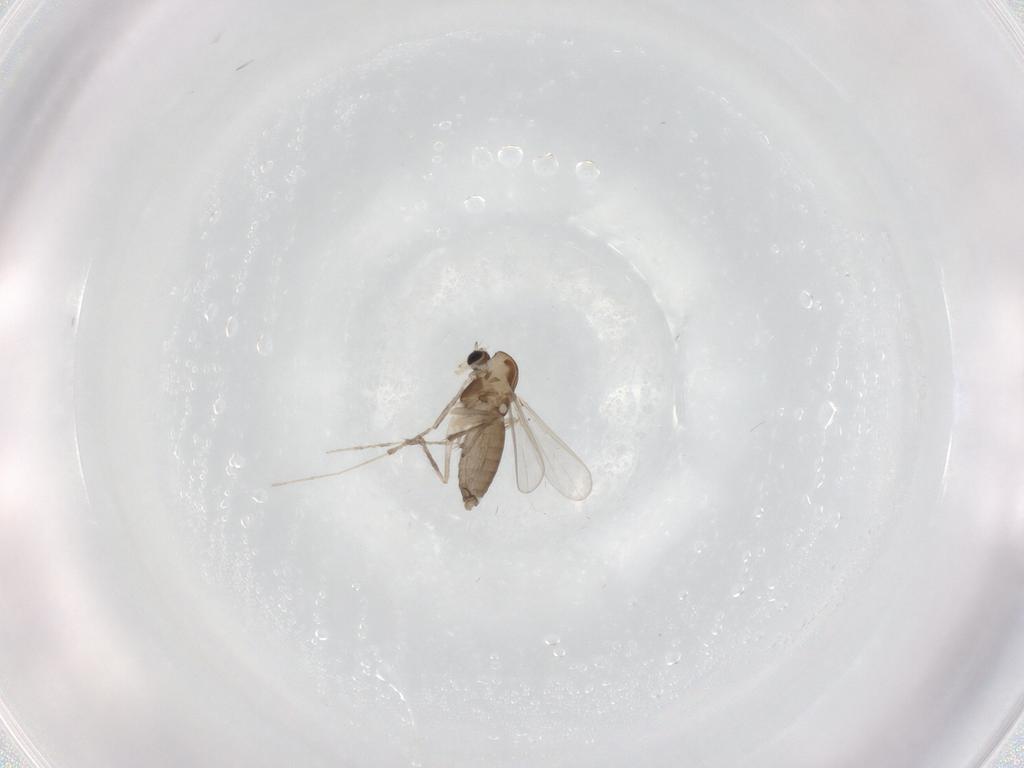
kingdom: Animalia
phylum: Arthropoda
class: Insecta
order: Diptera
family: Chironomidae
